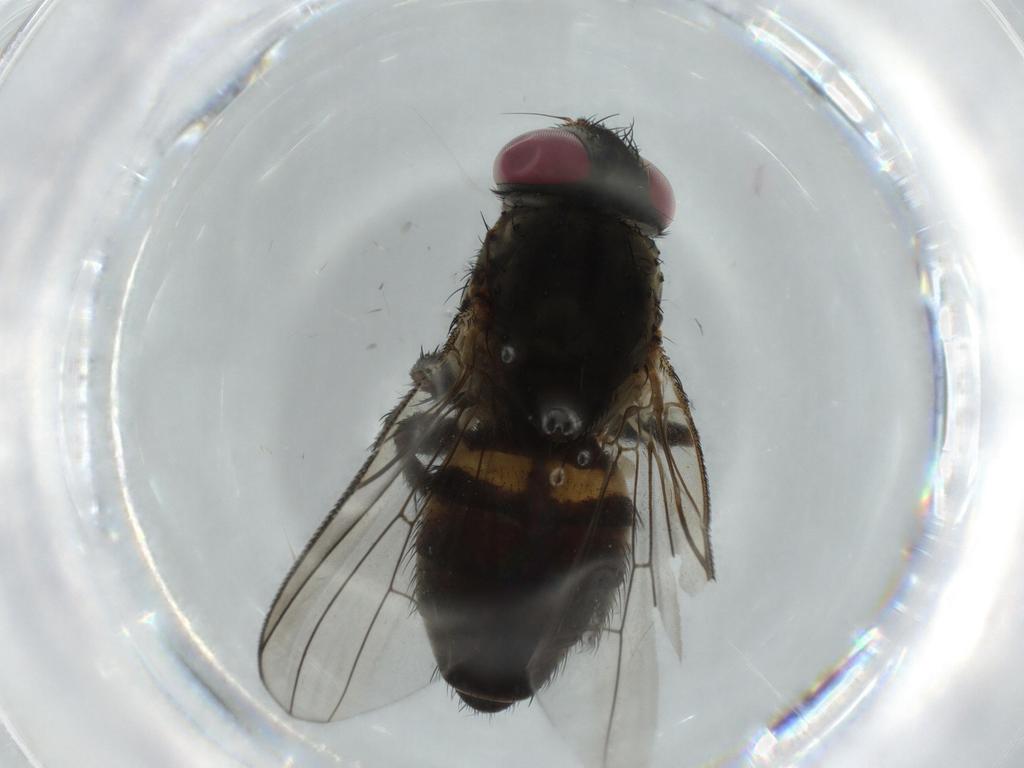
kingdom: Animalia
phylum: Arthropoda
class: Insecta
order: Diptera
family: Fannia
